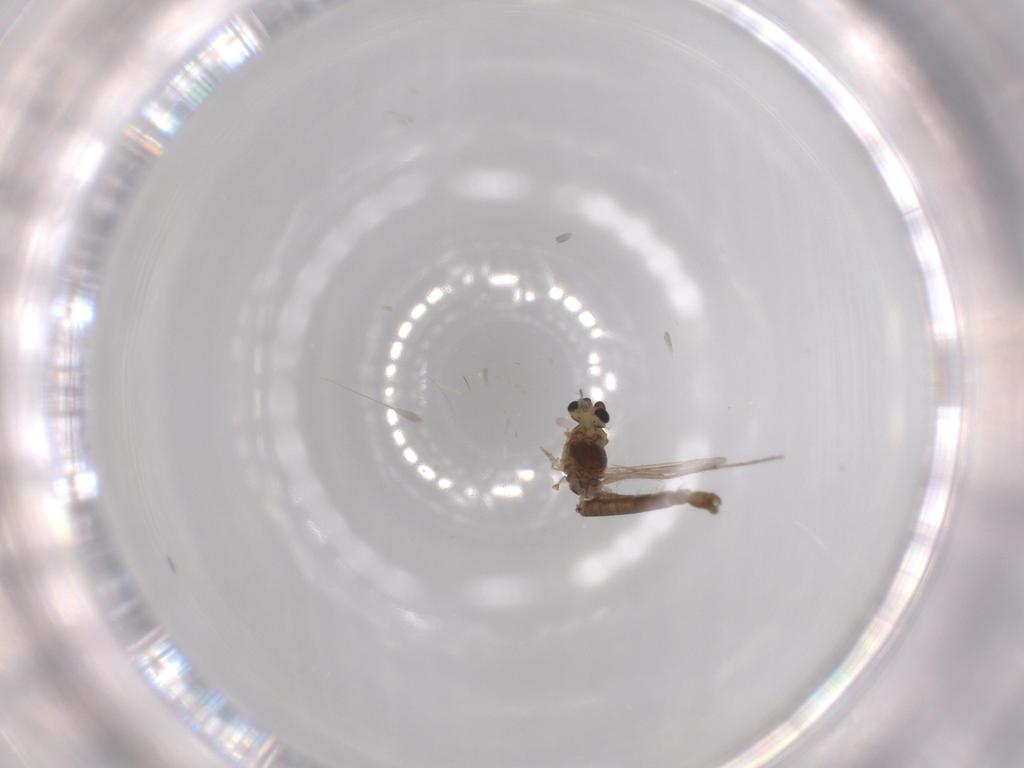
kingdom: Animalia
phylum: Arthropoda
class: Insecta
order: Diptera
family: Chironomidae
